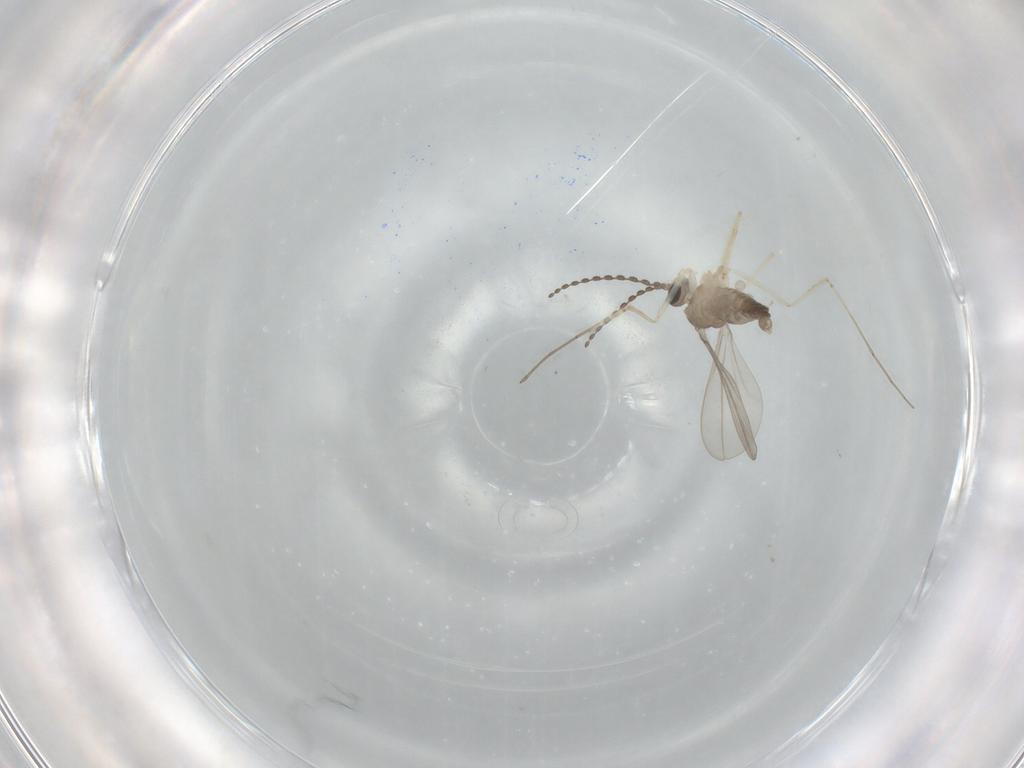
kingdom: Animalia
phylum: Arthropoda
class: Insecta
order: Diptera
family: Cecidomyiidae
